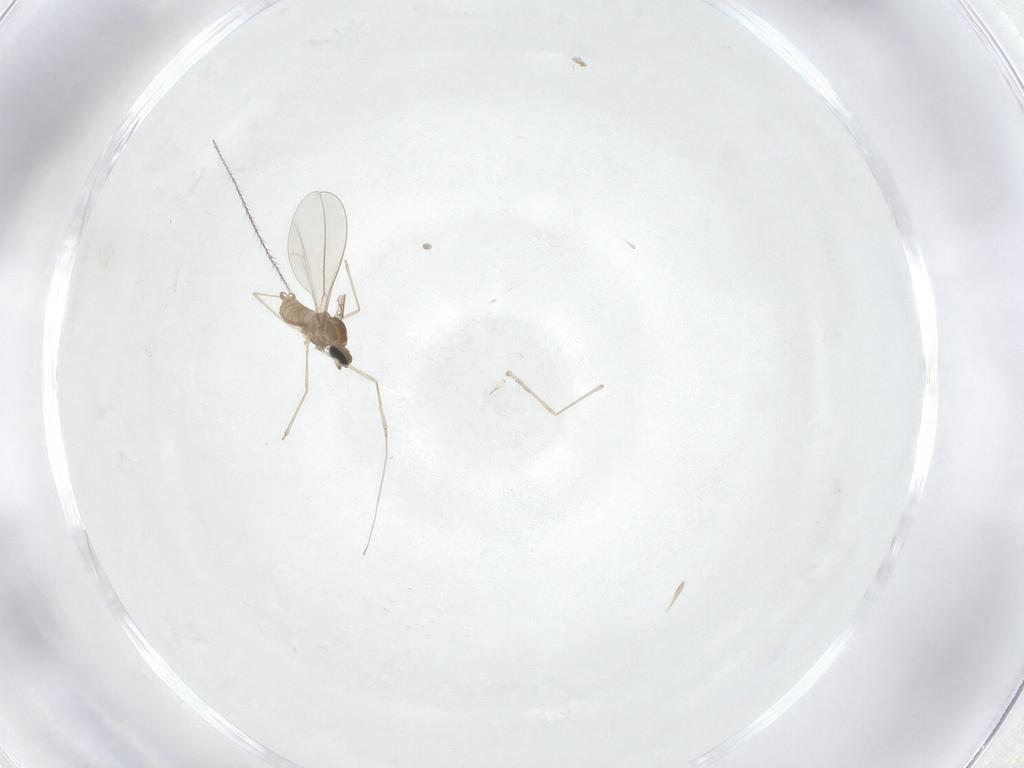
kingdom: Animalia
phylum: Arthropoda
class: Insecta
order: Diptera
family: Cecidomyiidae
